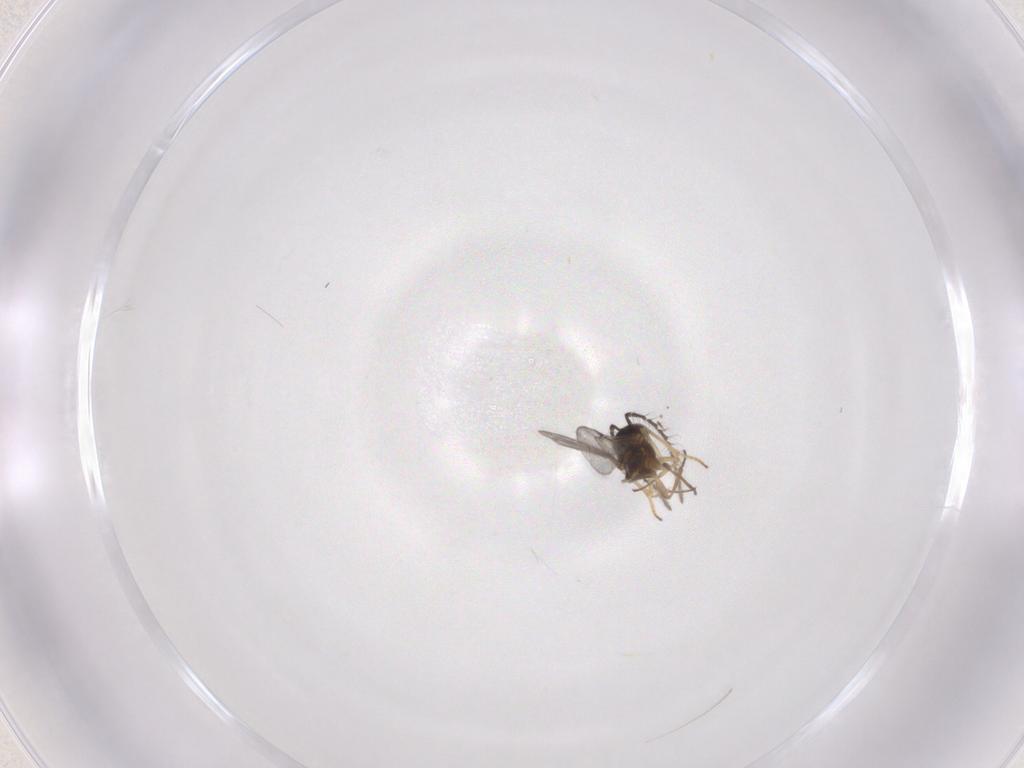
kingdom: Animalia
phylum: Arthropoda
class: Insecta
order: Hymenoptera
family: Encyrtidae
